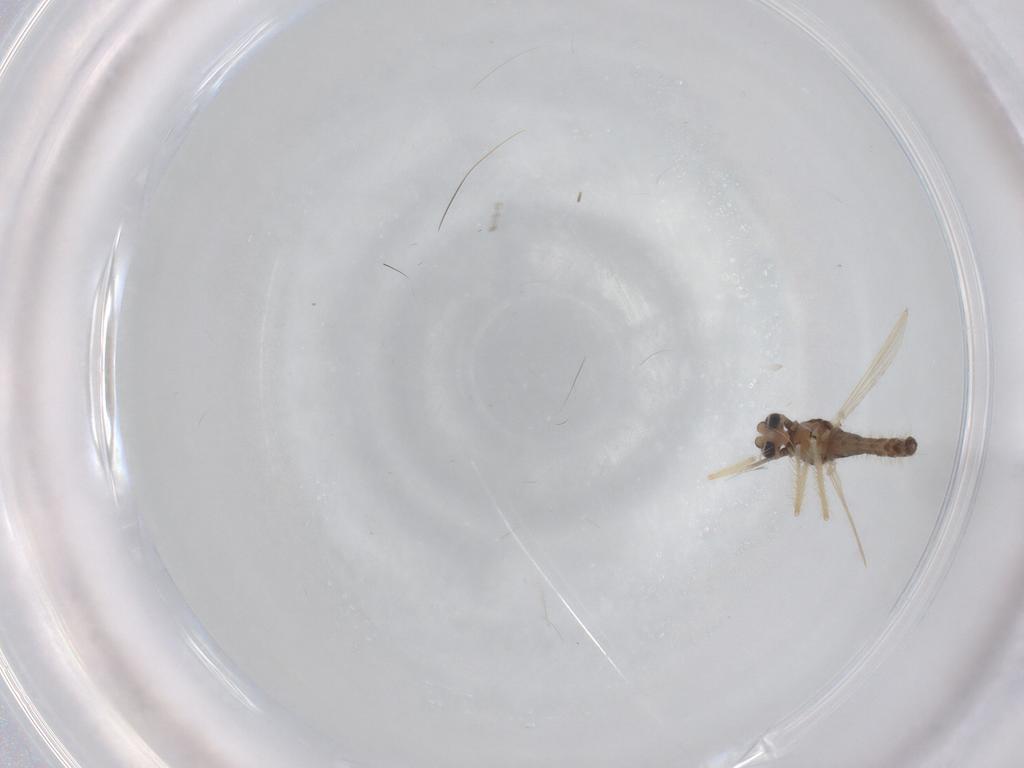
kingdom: Animalia
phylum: Arthropoda
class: Insecta
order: Diptera
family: Chironomidae
